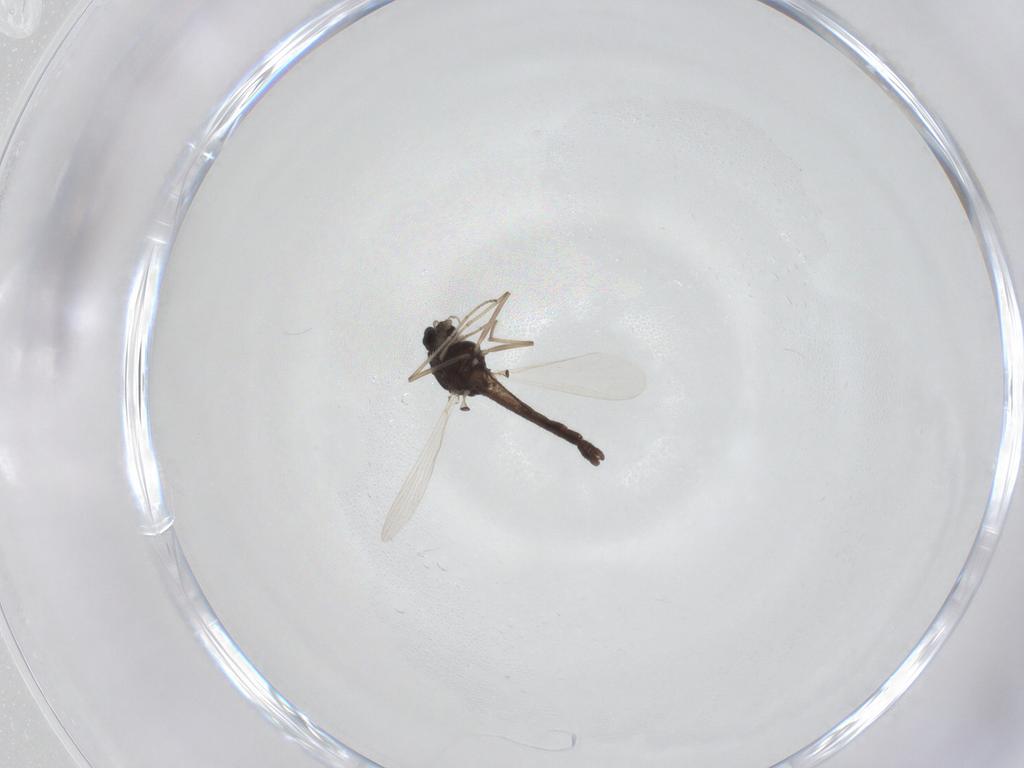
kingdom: Animalia
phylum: Arthropoda
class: Insecta
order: Diptera
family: Chironomidae
